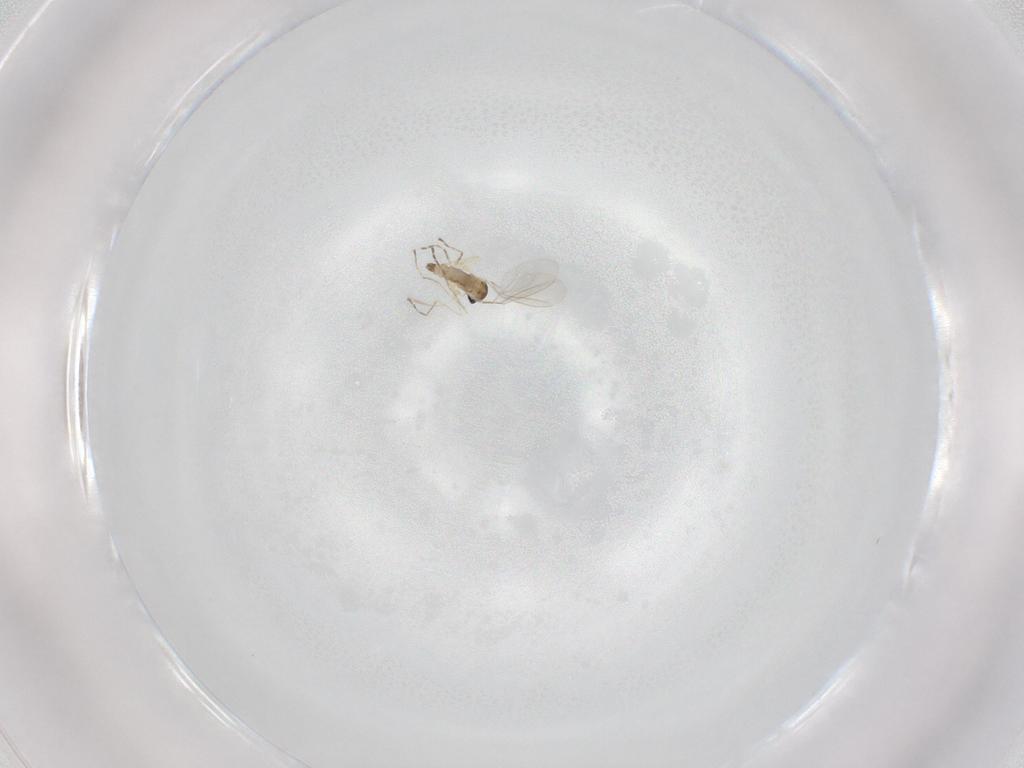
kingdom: Animalia
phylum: Arthropoda
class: Insecta
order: Diptera
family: Cecidomyiidae
